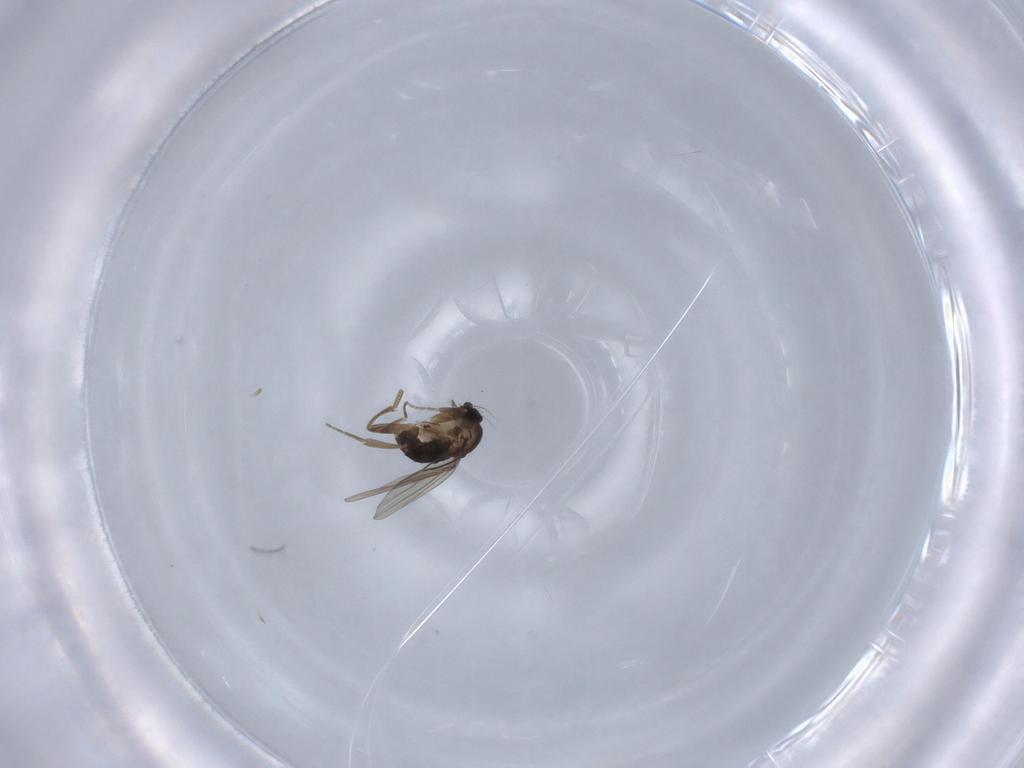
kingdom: Animalia
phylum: Arthropoda
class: Insecta
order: Diptera
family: Phoridae
